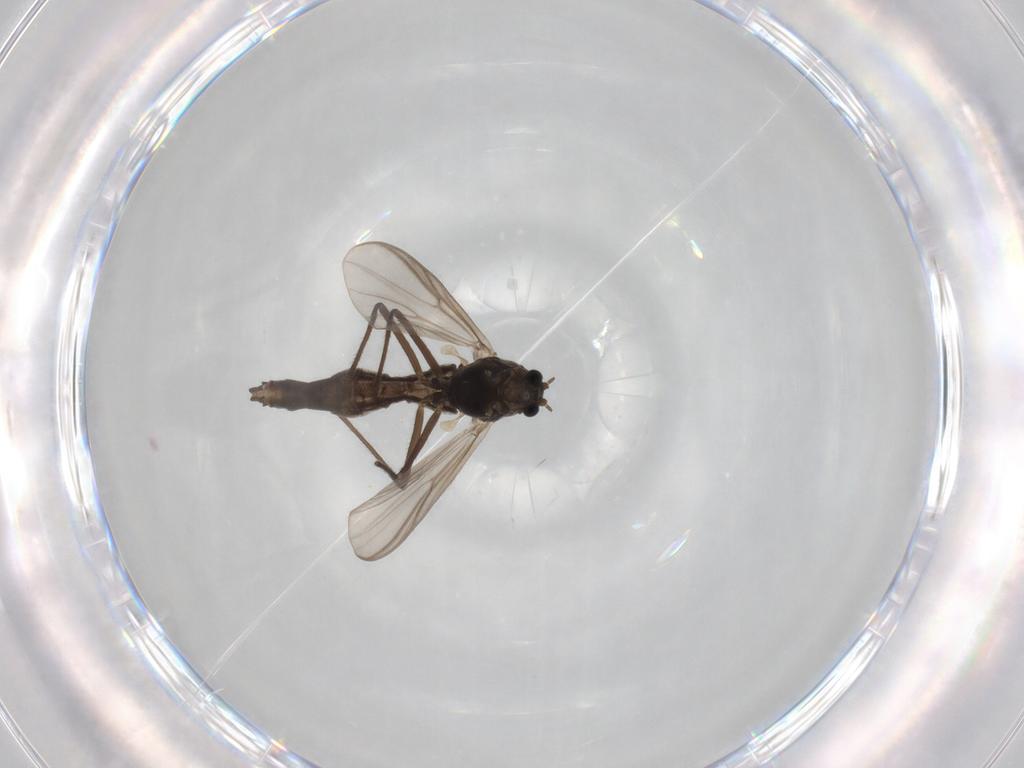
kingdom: Animalia
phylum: Arthropoda
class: Insecta
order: Diptera
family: Chironomidae
